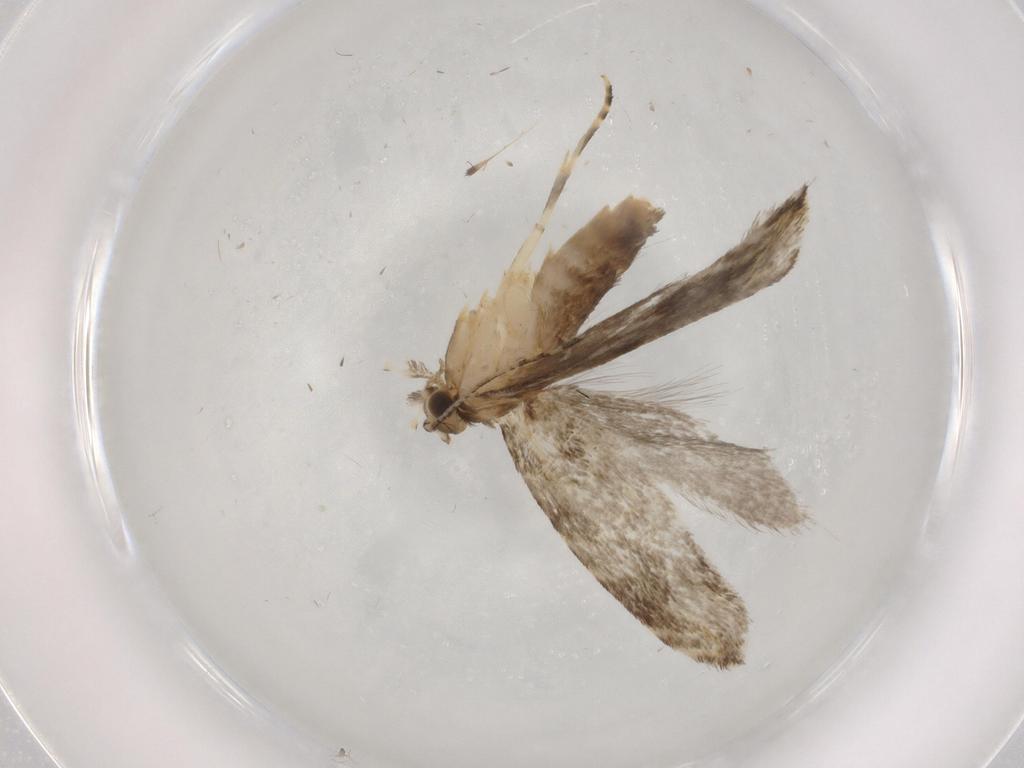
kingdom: Animalia
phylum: Arthropoda
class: Insecta
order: Lepidoptera
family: Tineidae
